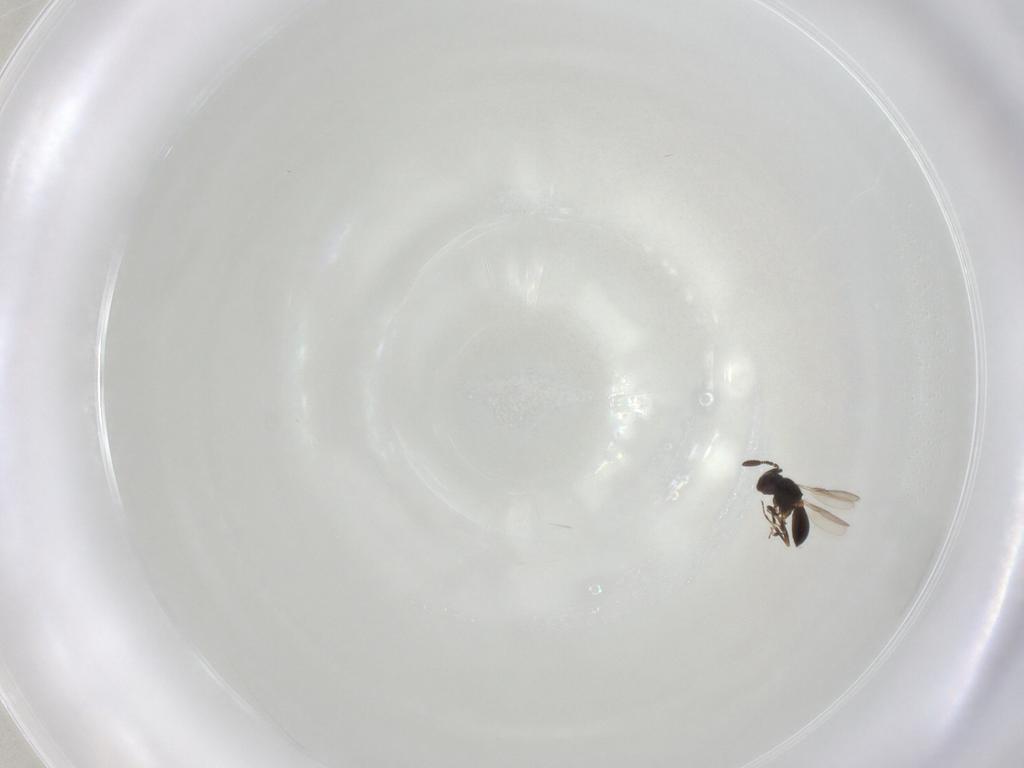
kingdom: Animalia
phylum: Arthropoda
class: Insecta
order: Hymenoptera
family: Scelionidae
